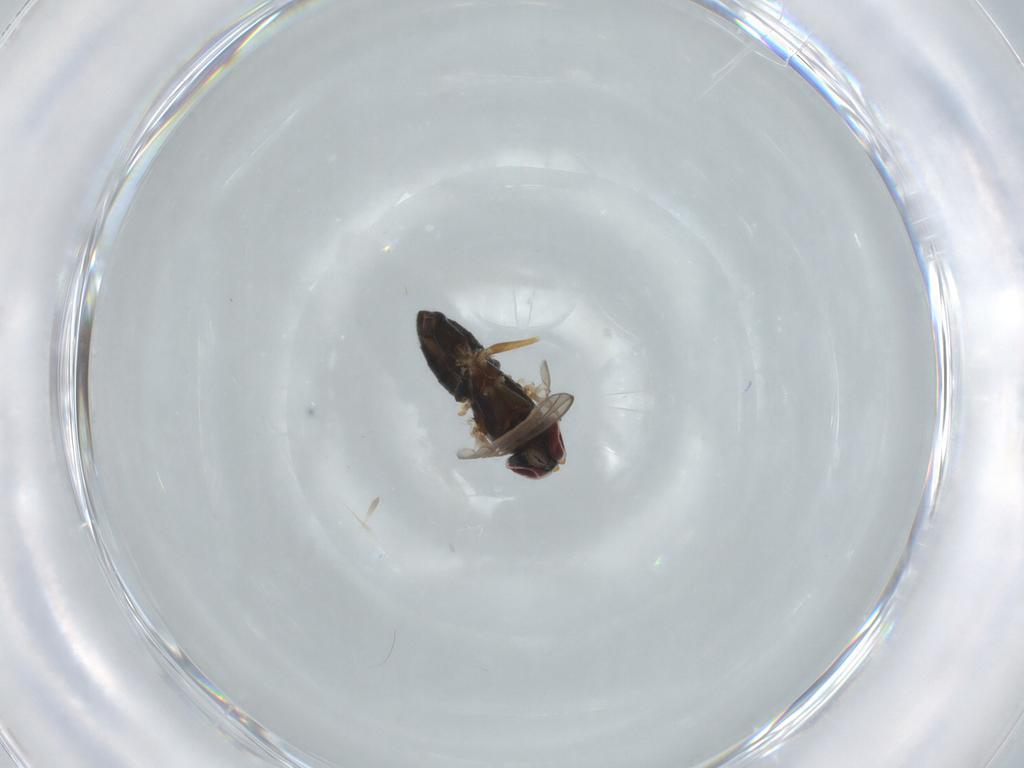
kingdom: Animalia
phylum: Arthropoda
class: Insecta
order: Diptera
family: Dolichopodidae
